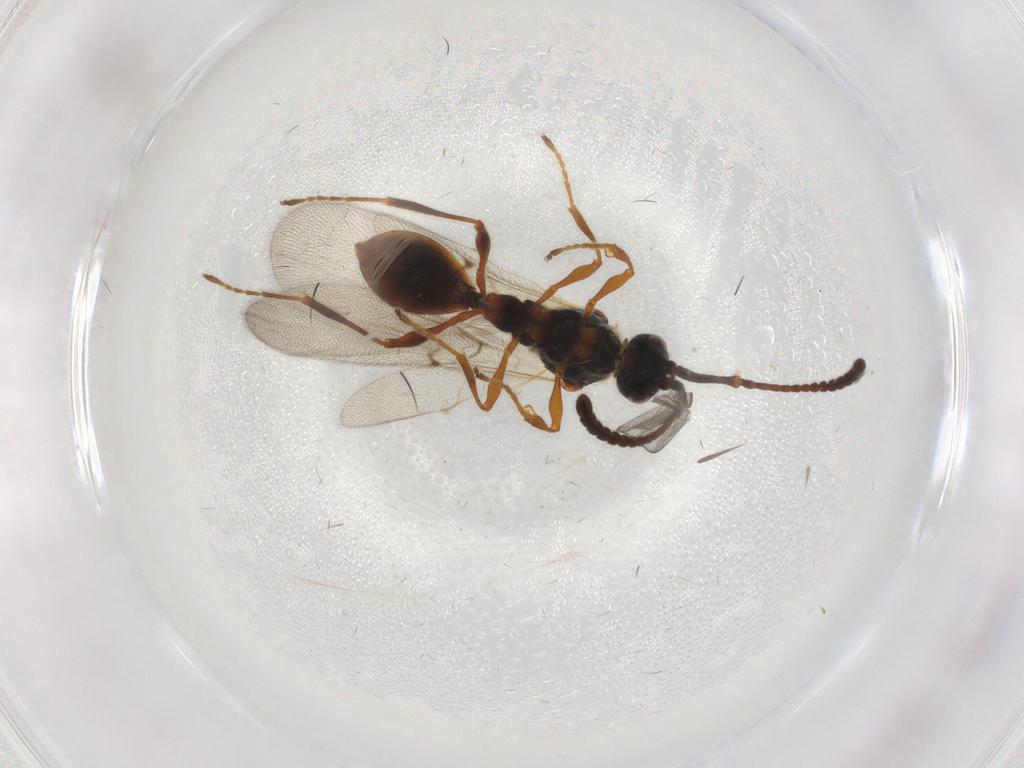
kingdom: Animalia
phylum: Arthropoda
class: Insecta
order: Hymenoptera
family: Diapriidae
